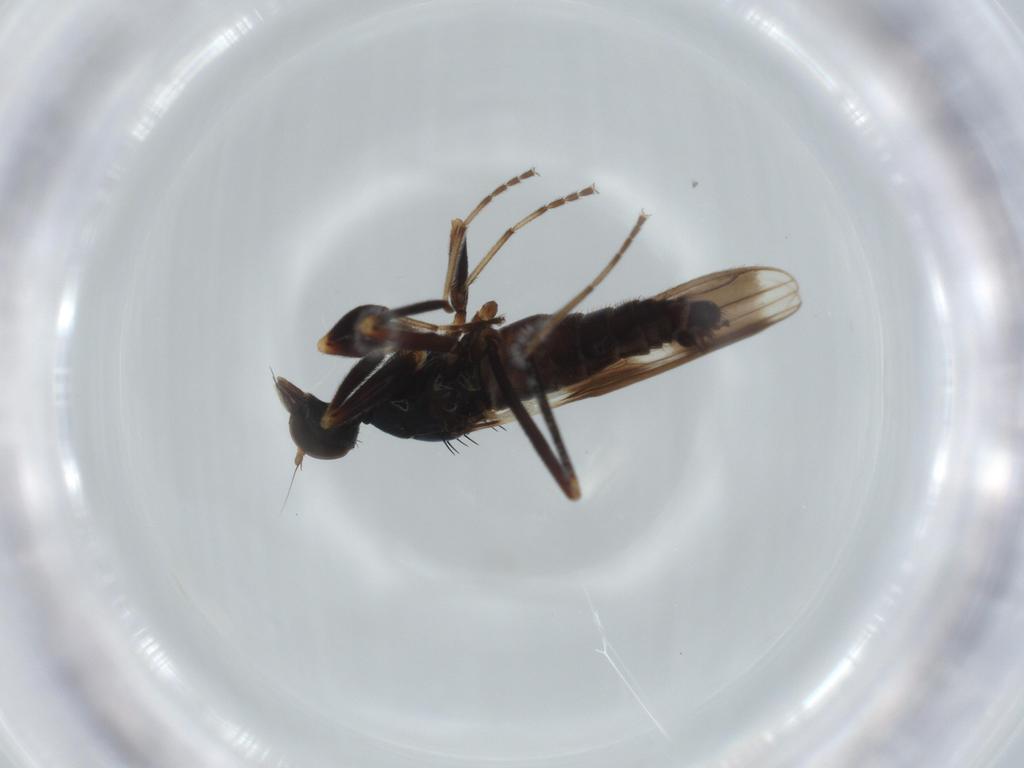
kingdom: Animalia
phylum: Arthropoda
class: Insecta
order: Diptera
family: Hybotidae
